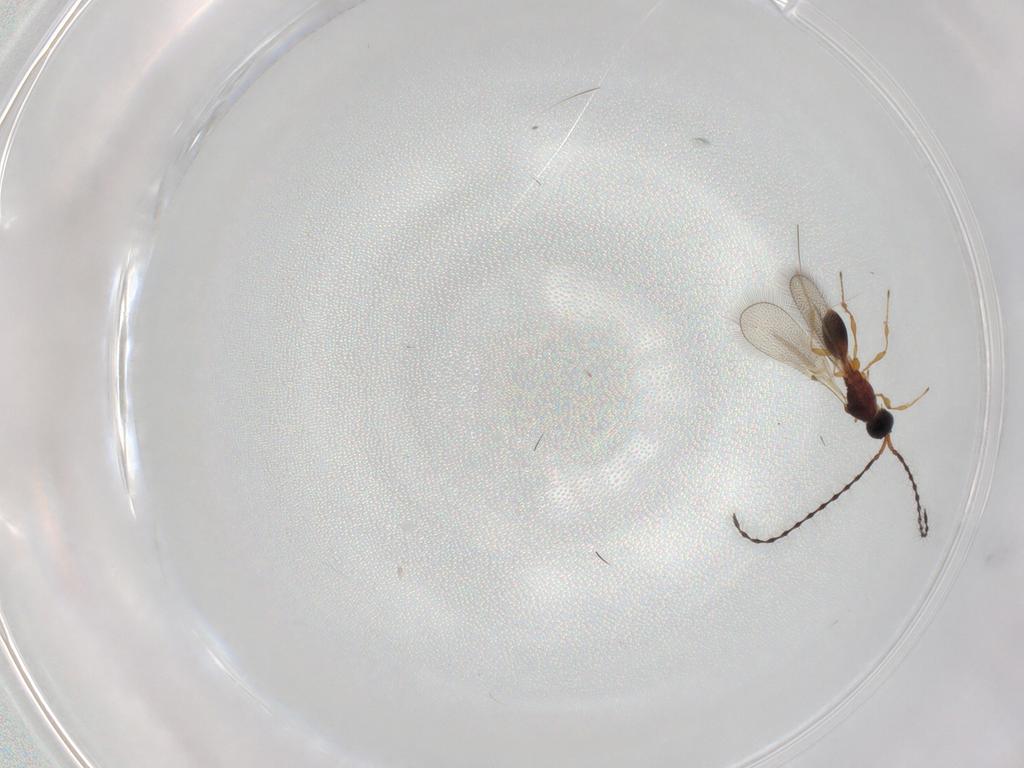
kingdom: Animalia
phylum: Arthropoda
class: Insecta
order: Hymenoptera
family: Diapriidae
